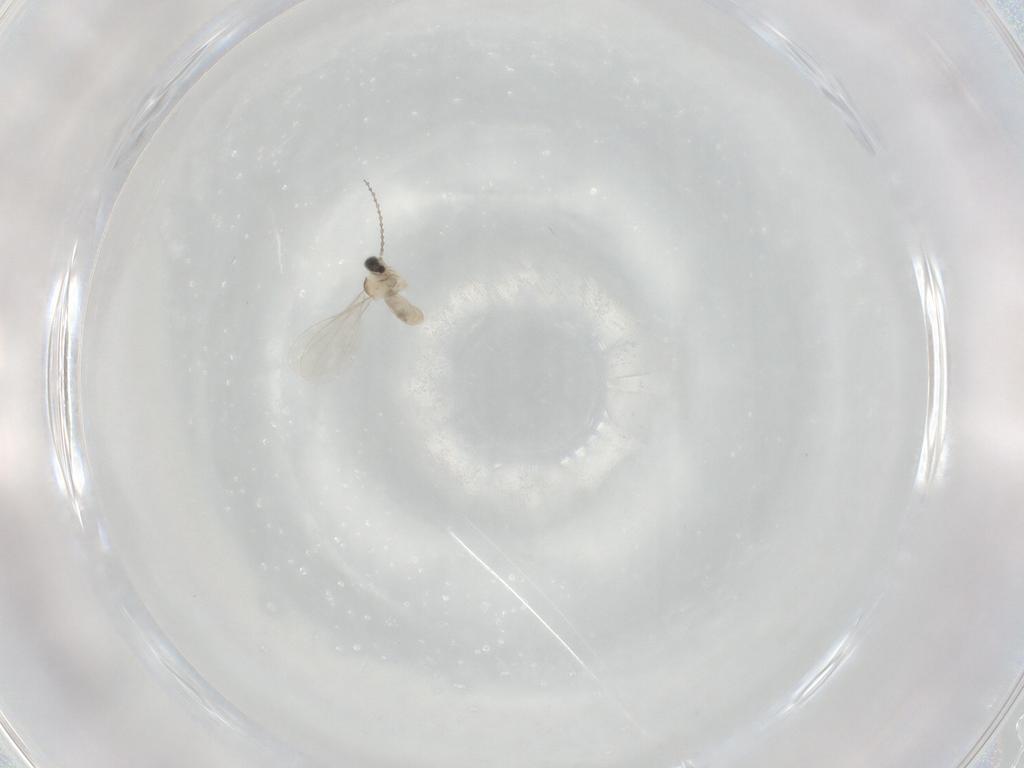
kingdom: Animalia
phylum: Arthropoda
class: Insecta
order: Diptera
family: Cecidomyiidae
